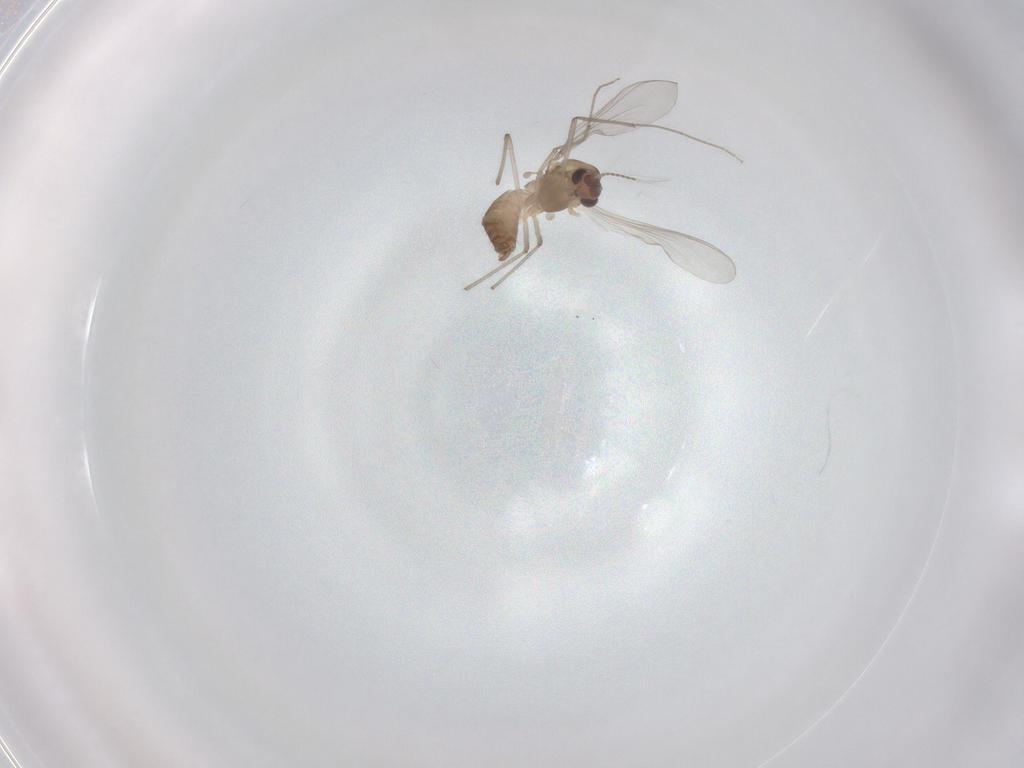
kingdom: Animalia
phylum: Arthropoda
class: Insecta
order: Diptera
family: Chironomidae
